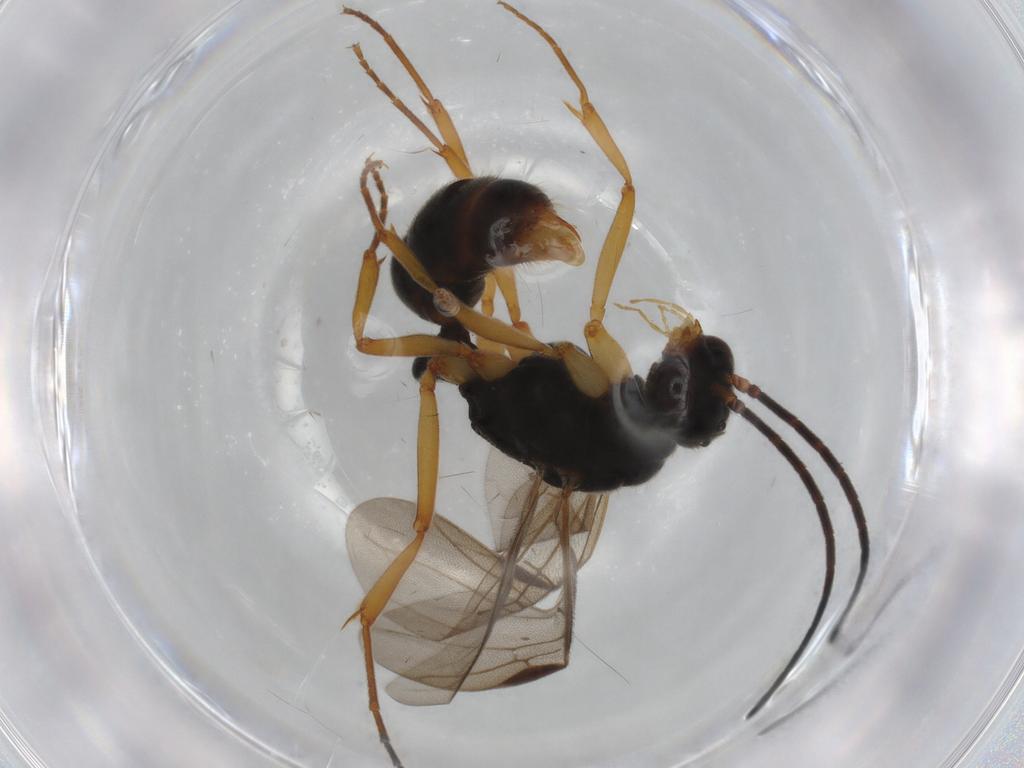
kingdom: Animalia
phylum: Arthropoda
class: Insecta
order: Hymenoptera
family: Formicidae
